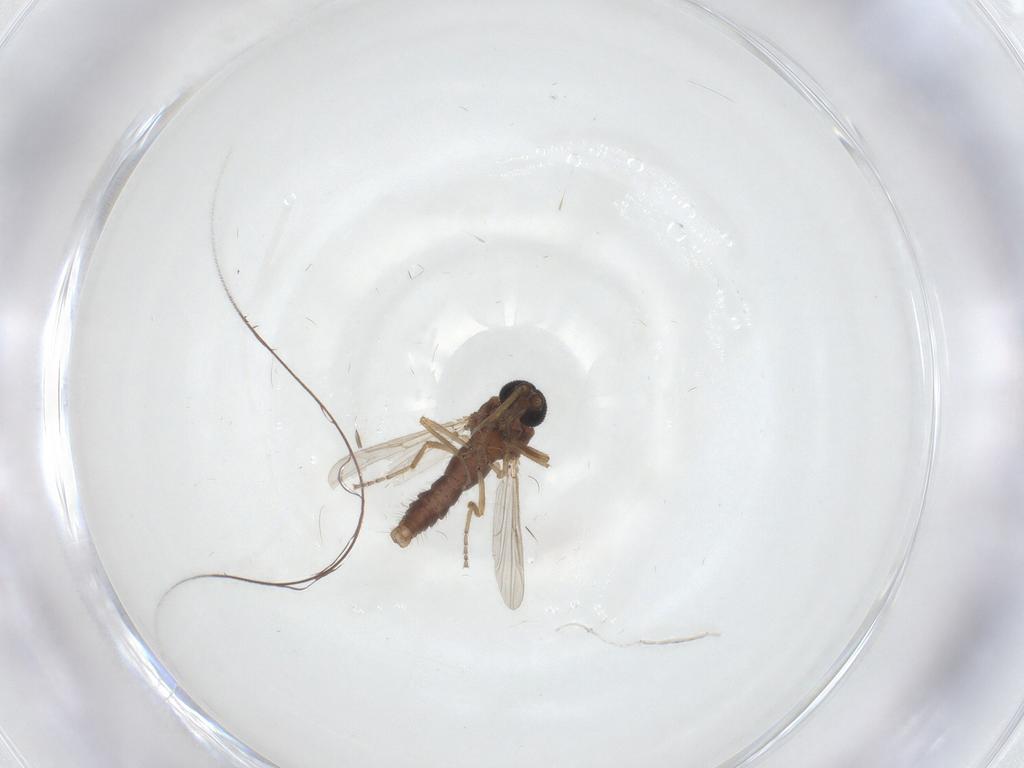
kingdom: Animalia
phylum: Arthropoda
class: Insecta
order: Diptera
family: Ceratopogonidae
